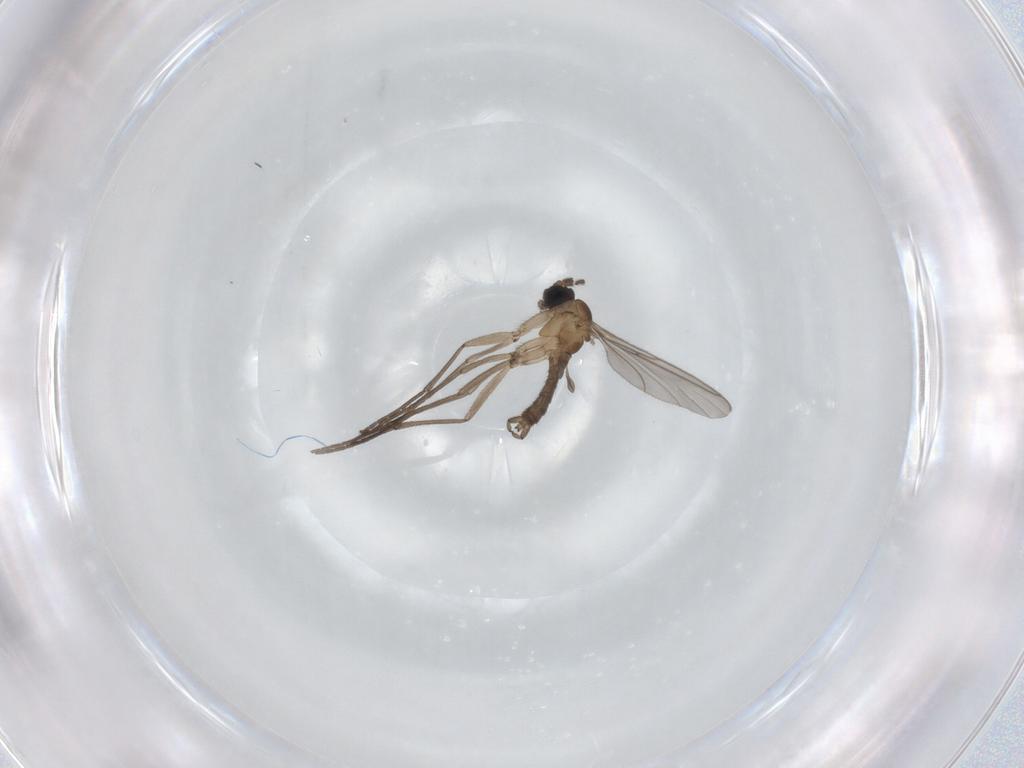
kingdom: Animalia
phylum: Arthropoda
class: Insecta
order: Diptera
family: Sciaridae
